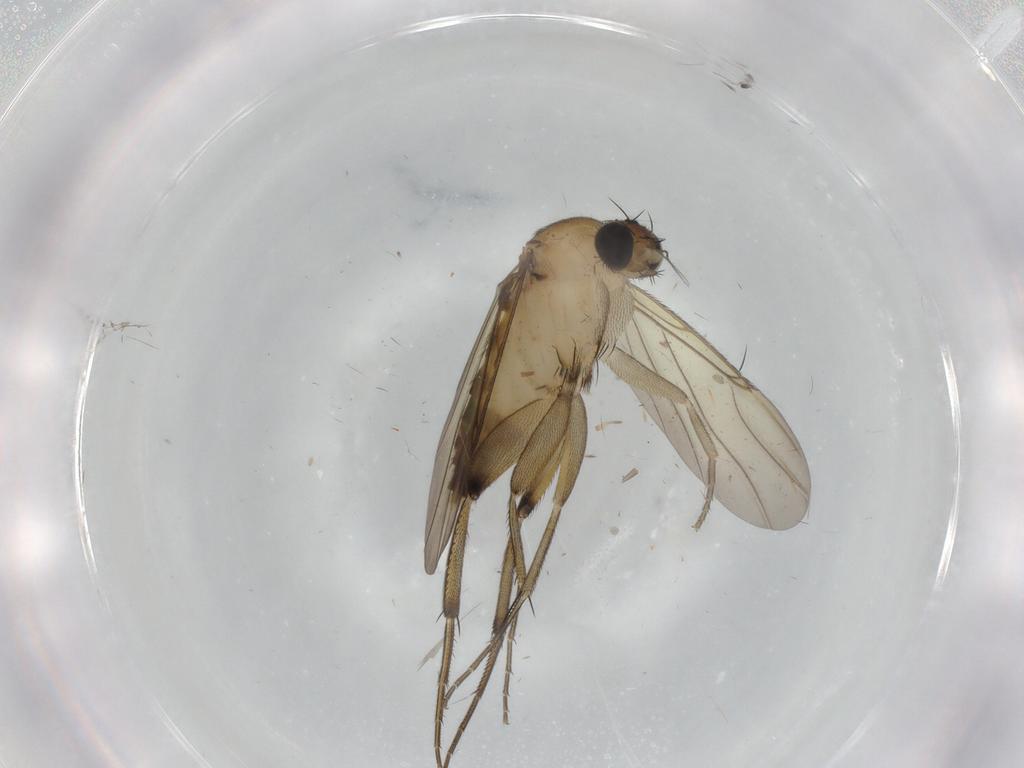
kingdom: Animalia
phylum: Arthropoda
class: Insecta
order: Diptera
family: Phoridae
